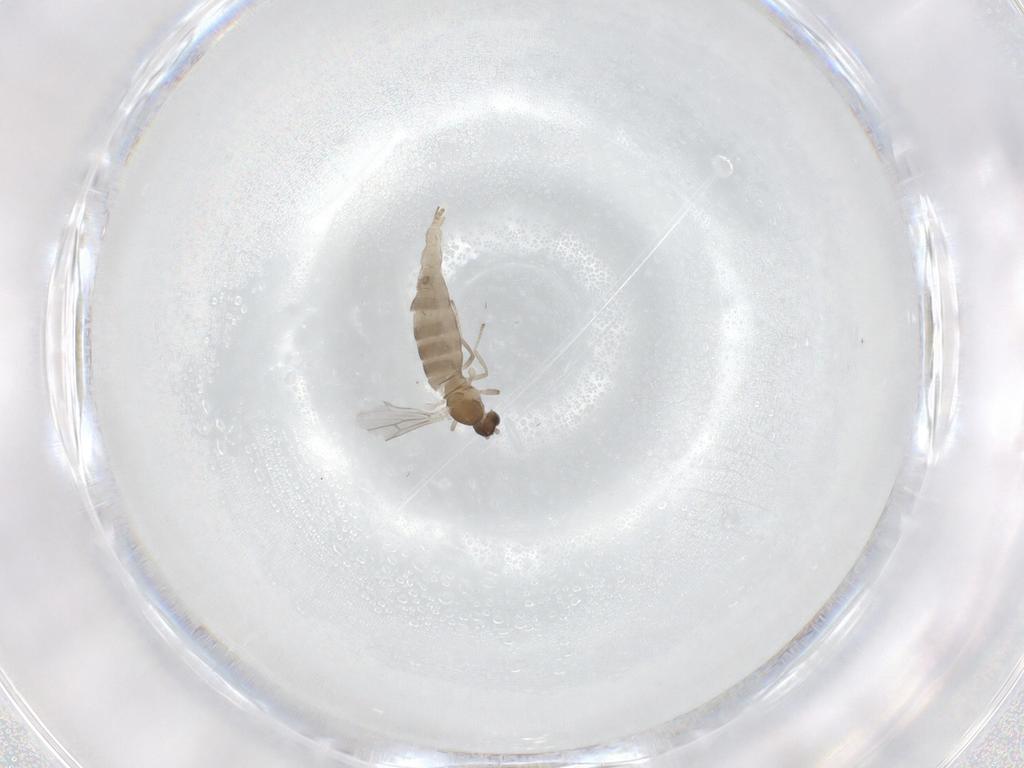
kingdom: Animalia
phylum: Arthropoda
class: Insecta
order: Diptera
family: Cecidomyiidae
